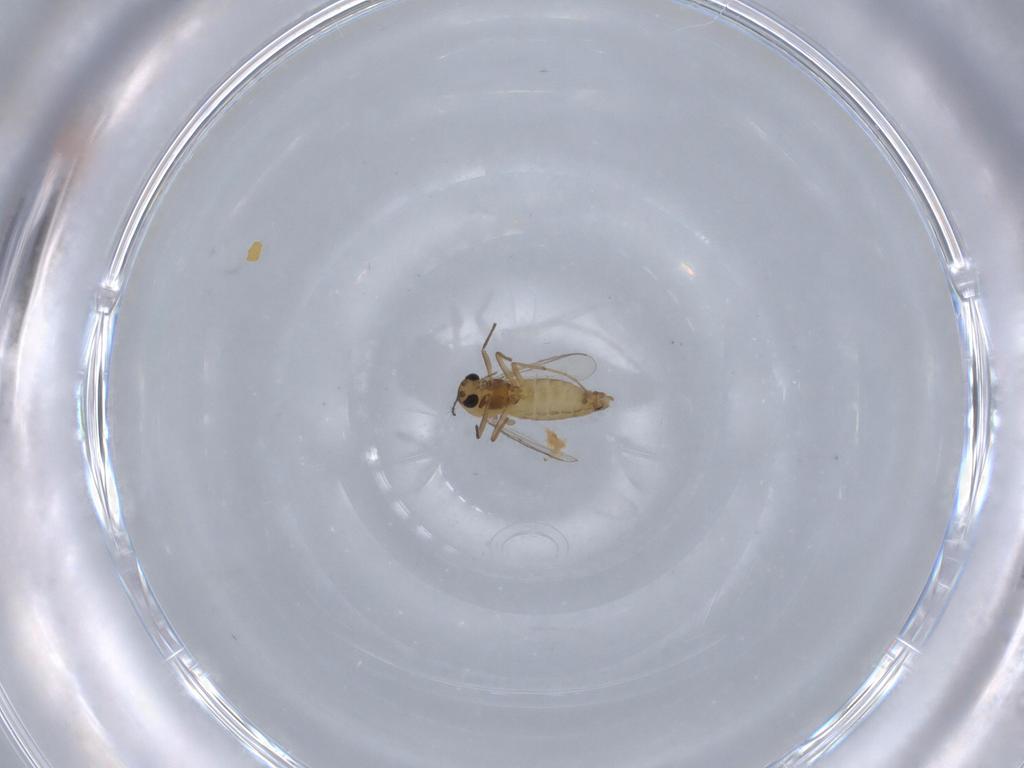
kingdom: Animalia
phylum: Arthropoda
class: Insecta
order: Diptera
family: Chironomidae
